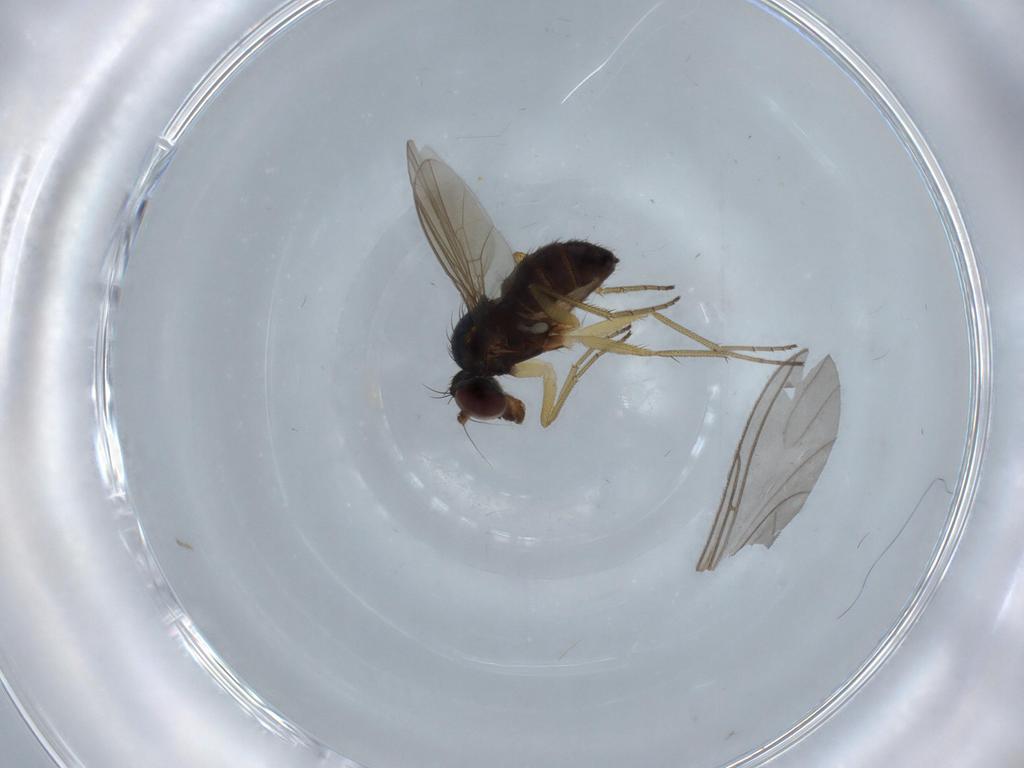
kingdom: Animalia
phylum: Arthropoda
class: Insecta
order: Diptera
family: Dolichopodidae
